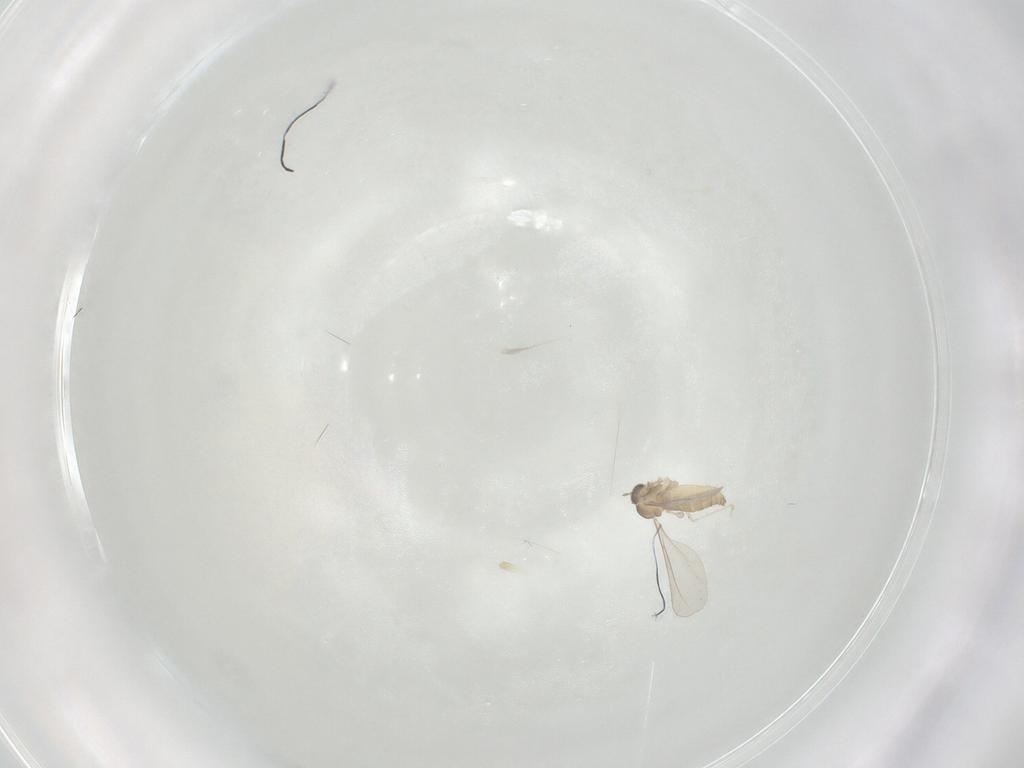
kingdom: Animalia
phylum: Arthropoda
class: Insecta
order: Diptera
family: Cecidomyiidae
